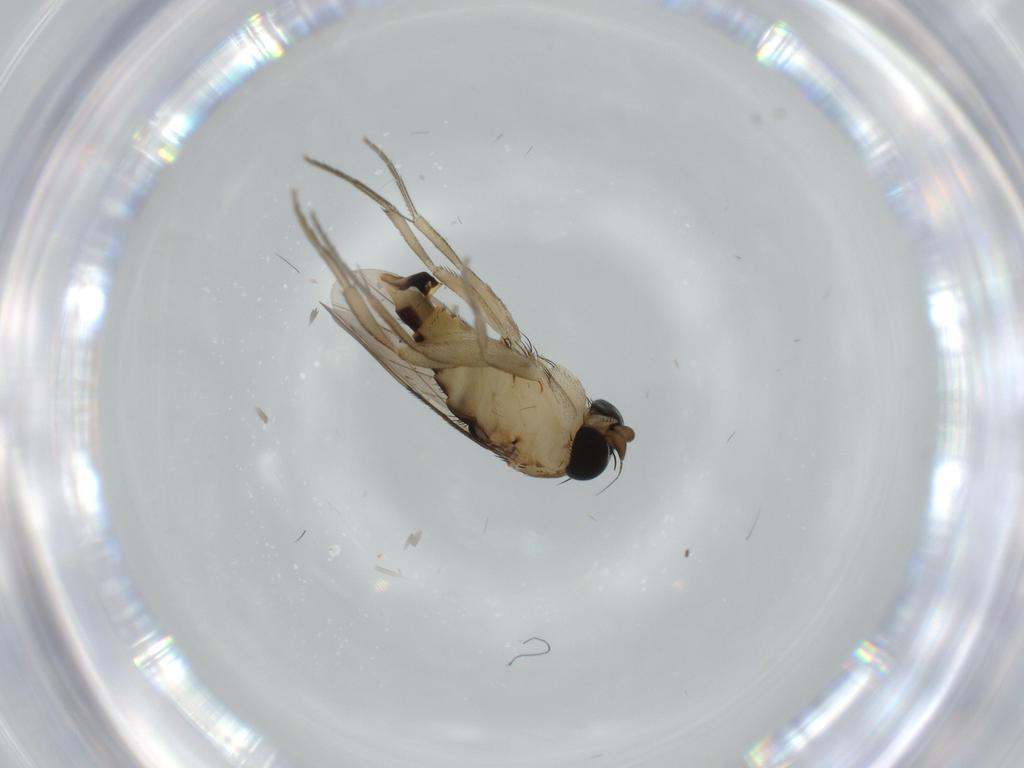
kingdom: Animalia
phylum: Arthropoda
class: Insecta
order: Diptera
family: Phoridae
